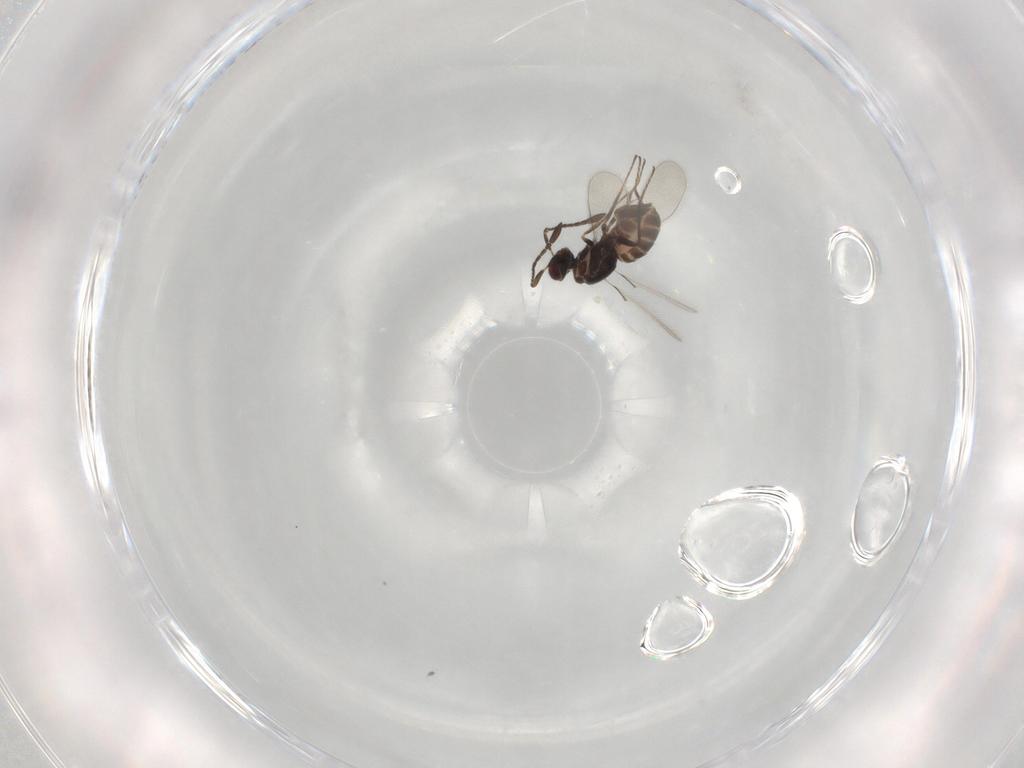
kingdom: Animalia
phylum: Arthropoda
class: Insecta
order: Hymenoptera
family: Mymaridae
